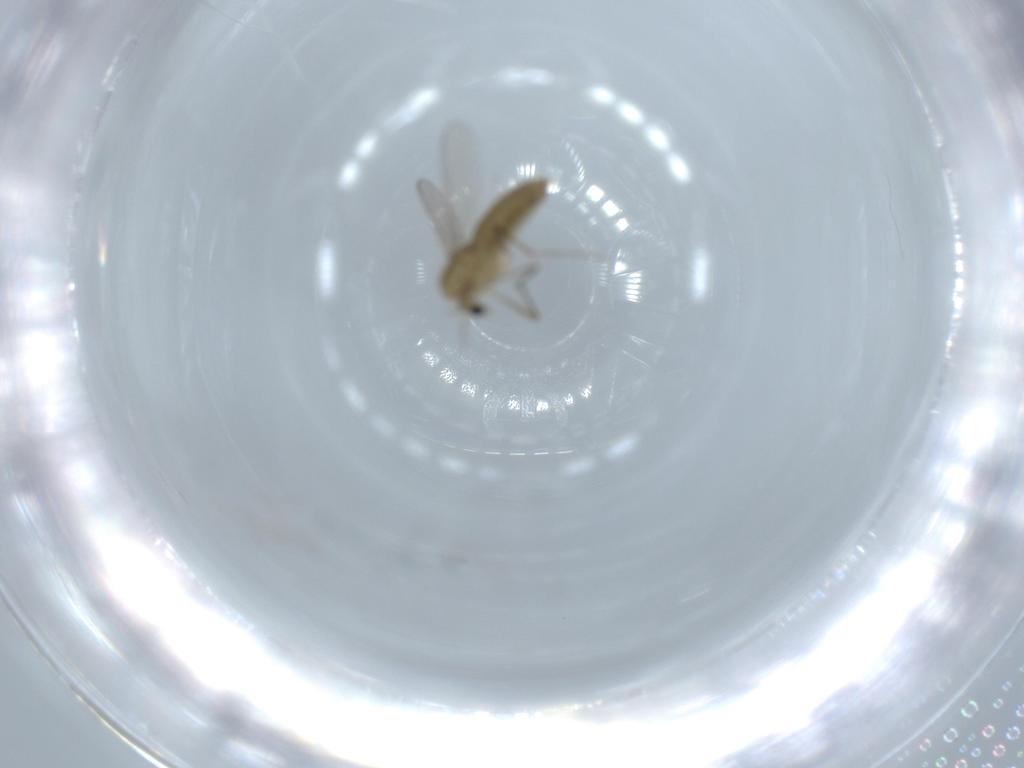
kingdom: Animalia
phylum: Arthropoda
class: Insecta
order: Diptera
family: Chironomidae
